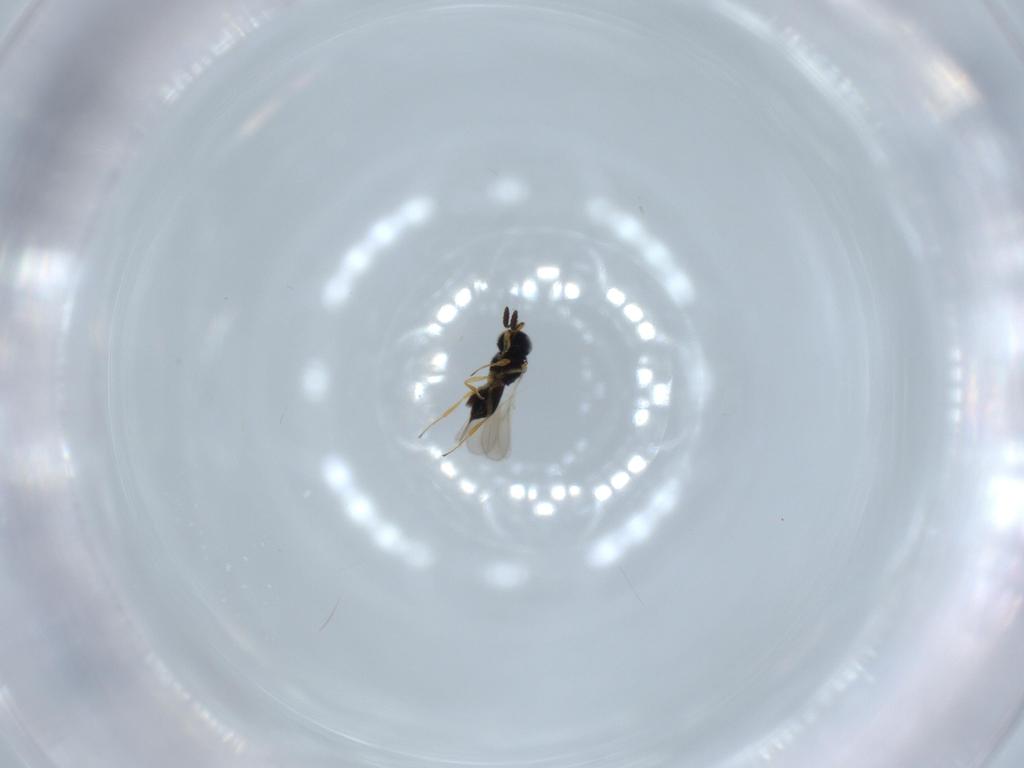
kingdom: Animalia
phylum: Arthropoda
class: Insecta
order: Hymenoptera
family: Scelionidae
